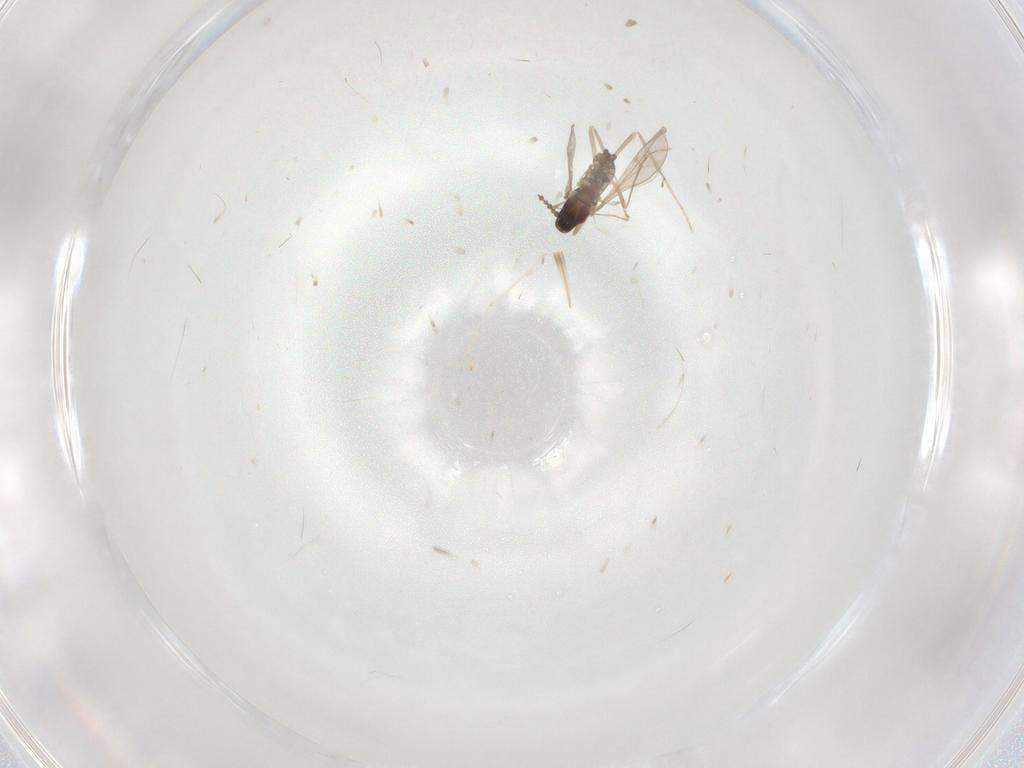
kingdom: Animalia
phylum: Arthropoda
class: Insecta
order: Diptera
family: Cecidomyiidae
